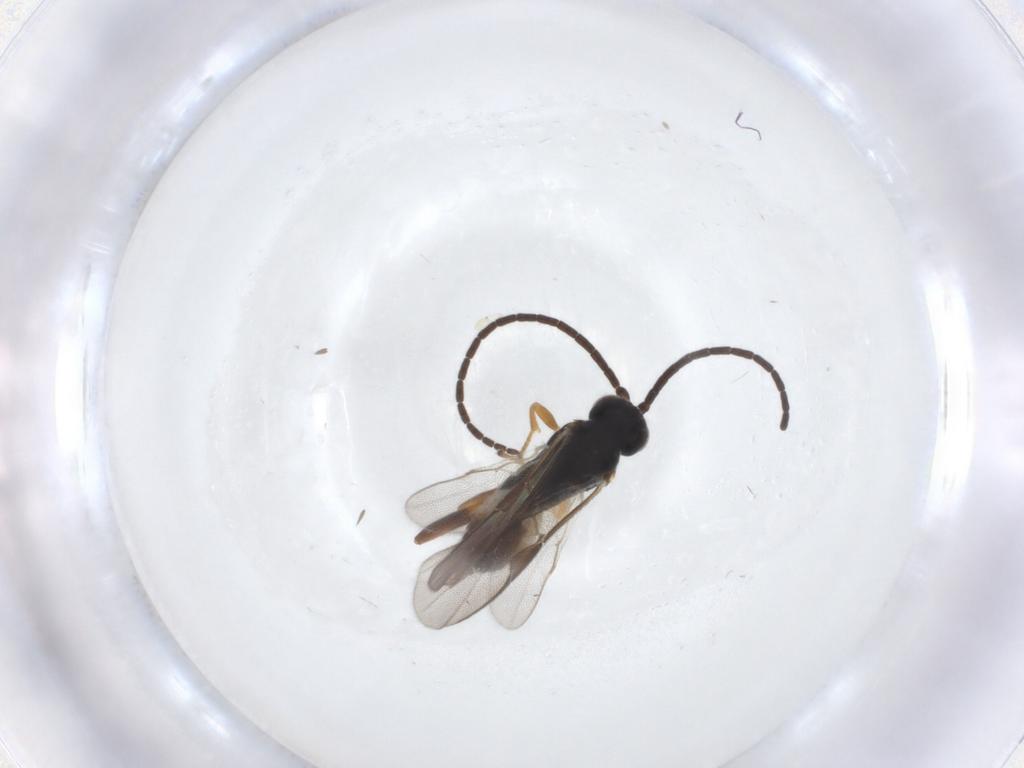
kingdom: Animalia
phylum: Arthropoda
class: Insecta
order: Hymenoptera
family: Braconidae
